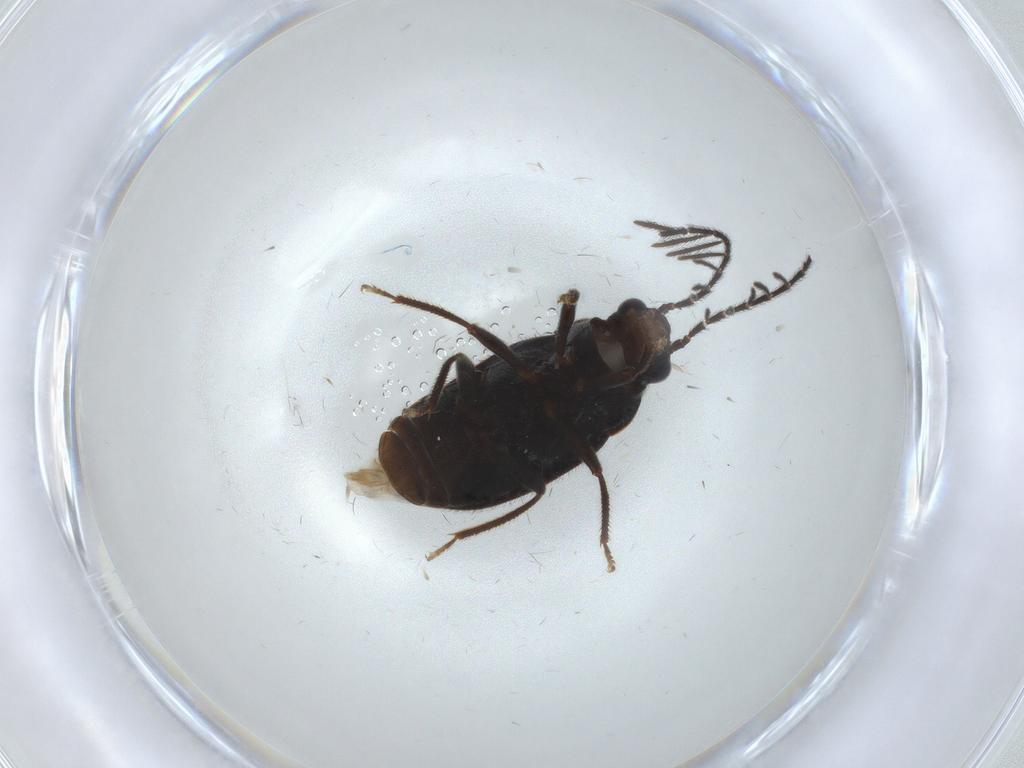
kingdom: Animalia
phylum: Arthropoda
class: Insecta
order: Coleoptera
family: Ptilodactylidae
